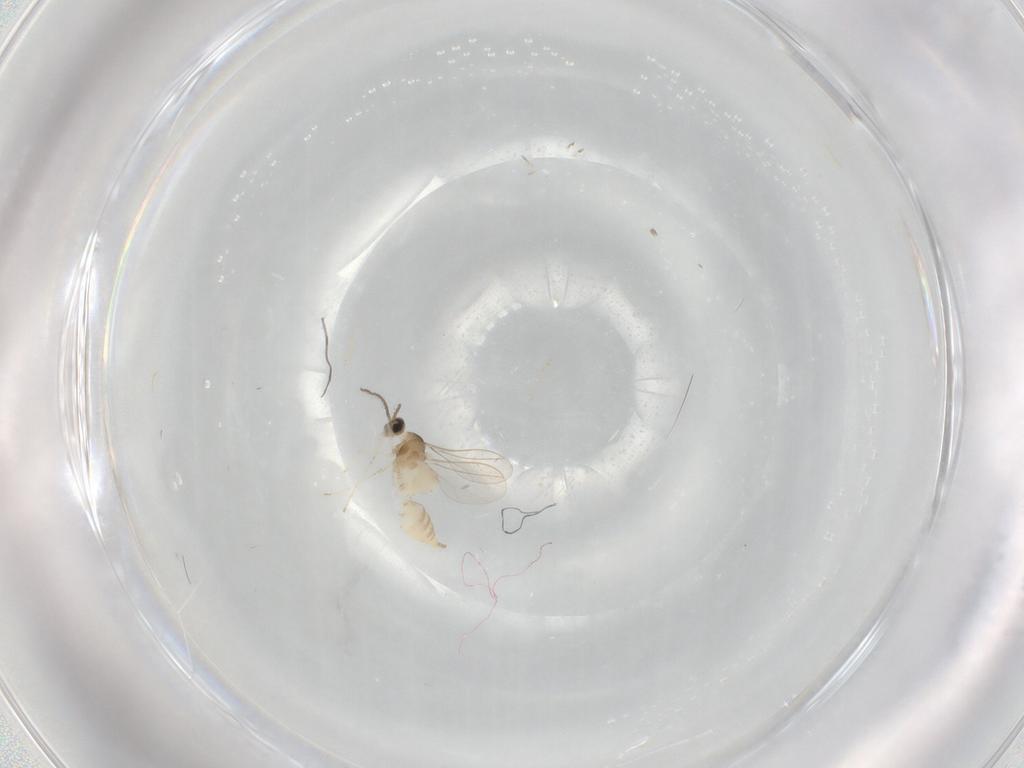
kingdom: Animalia
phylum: Arthropoda
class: Insecta
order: Diptera
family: Cecidomyiidae
